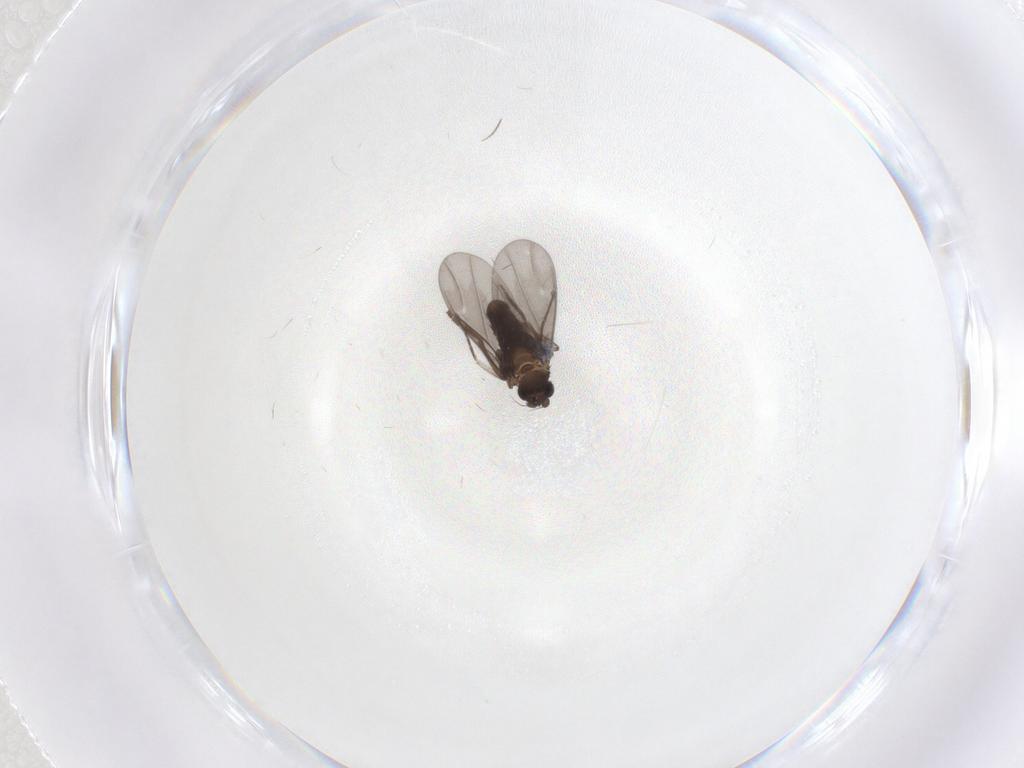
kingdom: Animalia
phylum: Arthropoda
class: Insecta
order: Diptera
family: Phoridae
